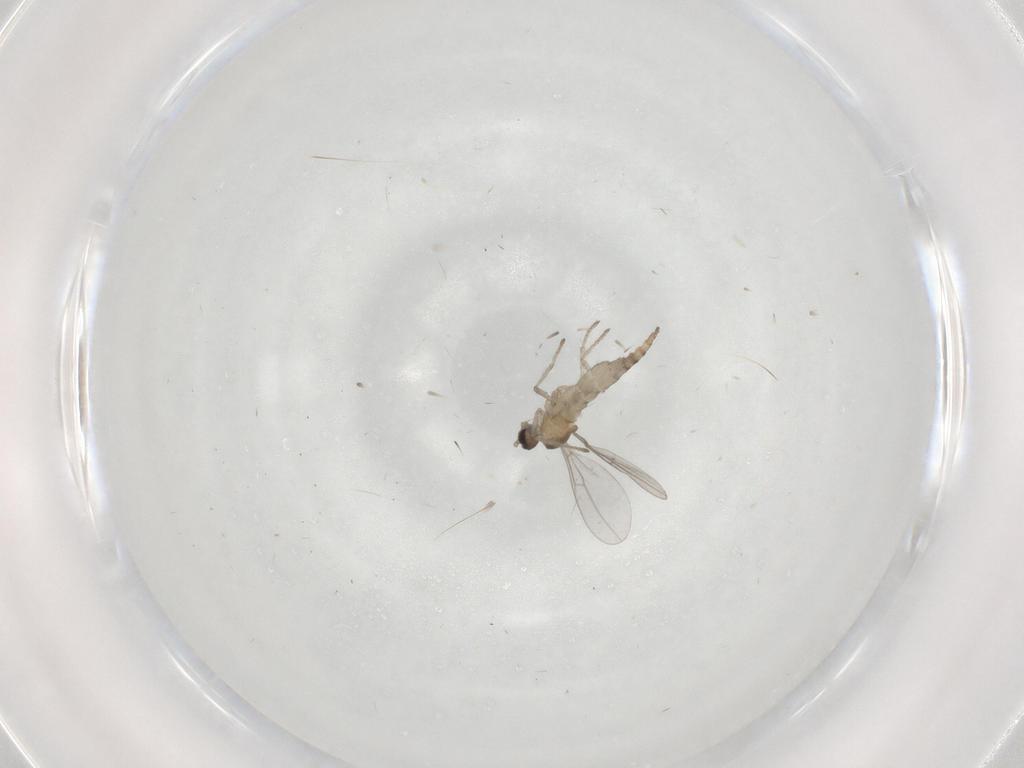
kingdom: Animalia
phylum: Arthropoda
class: Insecta
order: Diptera
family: Cecidomyiidae
